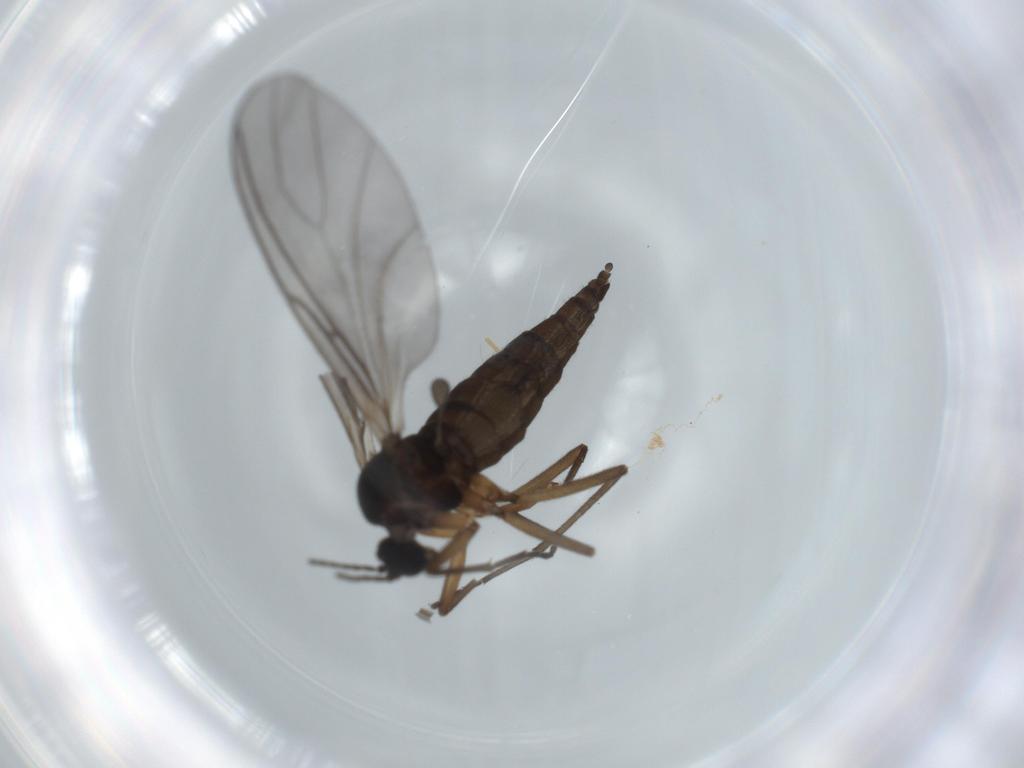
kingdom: Animalia
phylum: Arthropoda
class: Insecta
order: Diptera
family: Sciaridae
